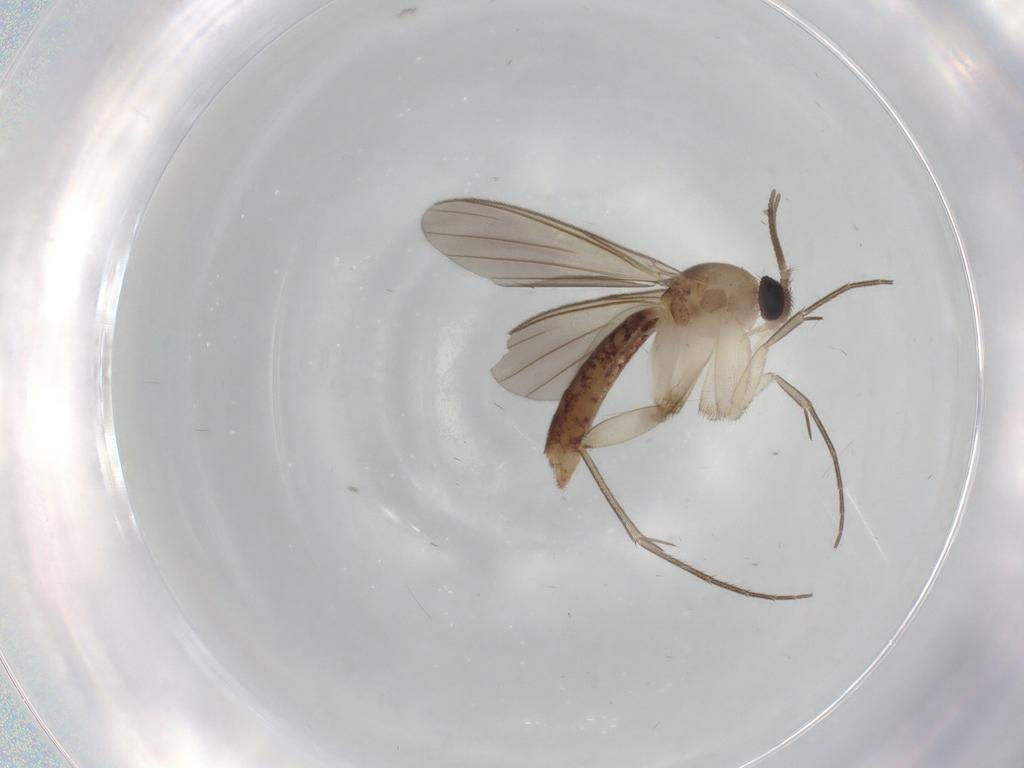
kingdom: Animalia
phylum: Arthropoda
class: Insecta
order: Diptera
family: Mycetophilidae
